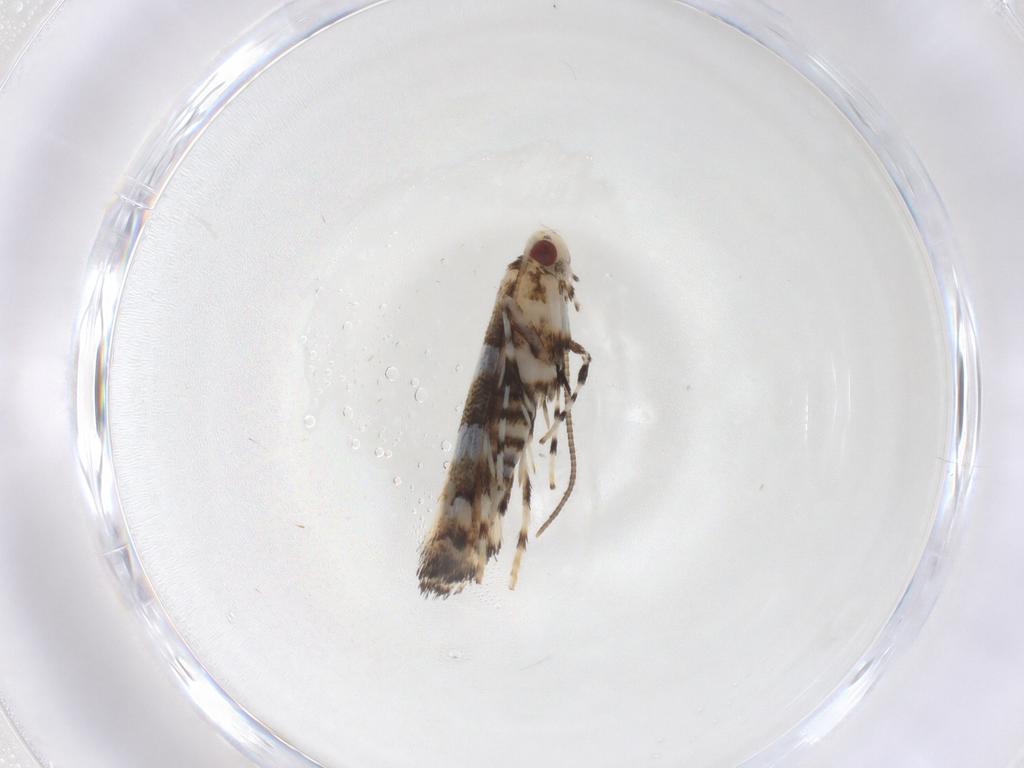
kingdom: Animalia
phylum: Arthropoda
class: Insecta
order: Lepidoptera
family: Gracillariidae
